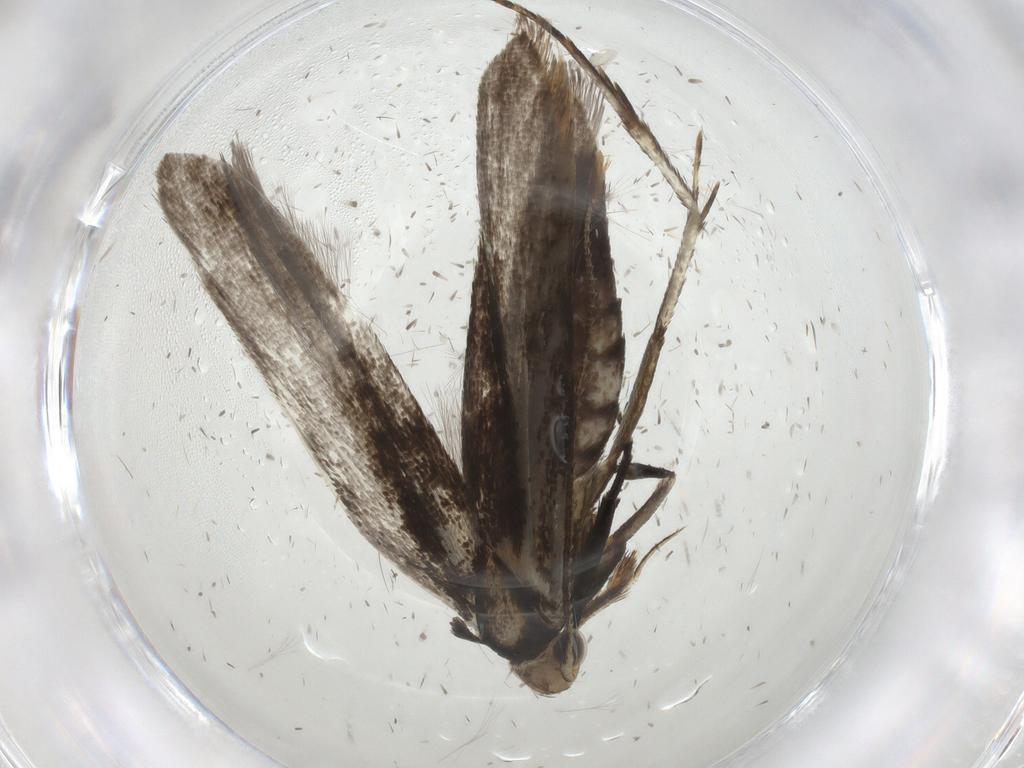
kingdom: Animalia
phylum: Arthropoda
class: Insecta
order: Lepidoptera
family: Gelechiidae
